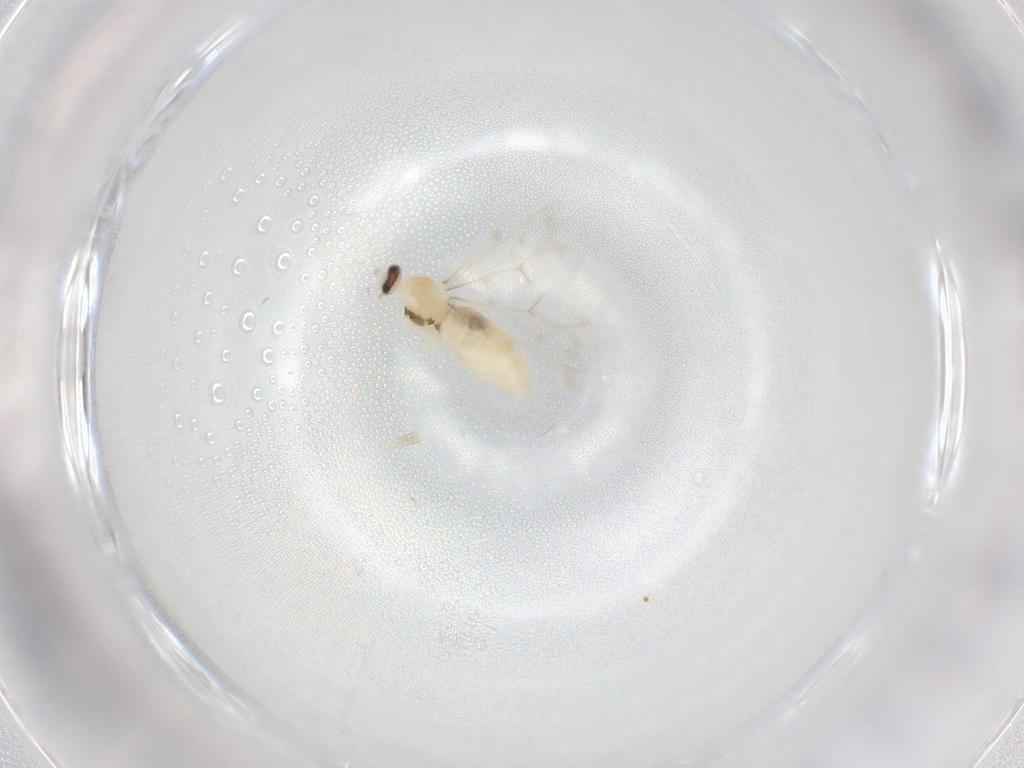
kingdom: Animalia
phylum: Arthropoda
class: Insecta
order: Diptera
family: Cecidomyiidae
